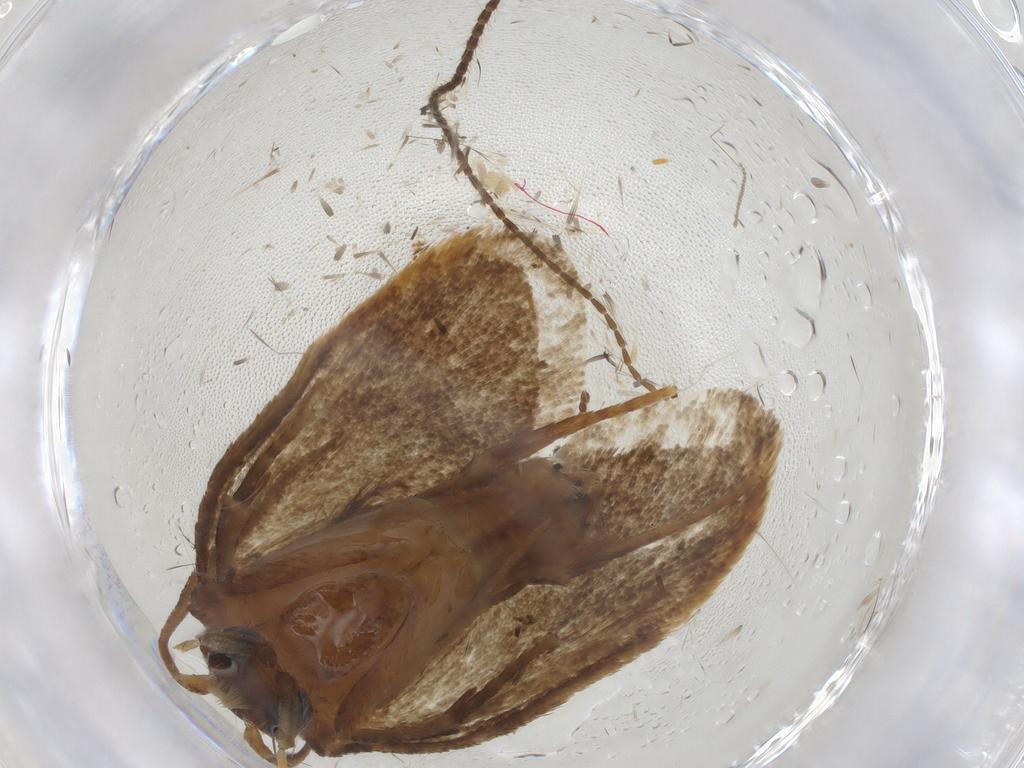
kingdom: Animalia
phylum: Arthropoda
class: Insecta
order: Lepidoptera
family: Tineidae
